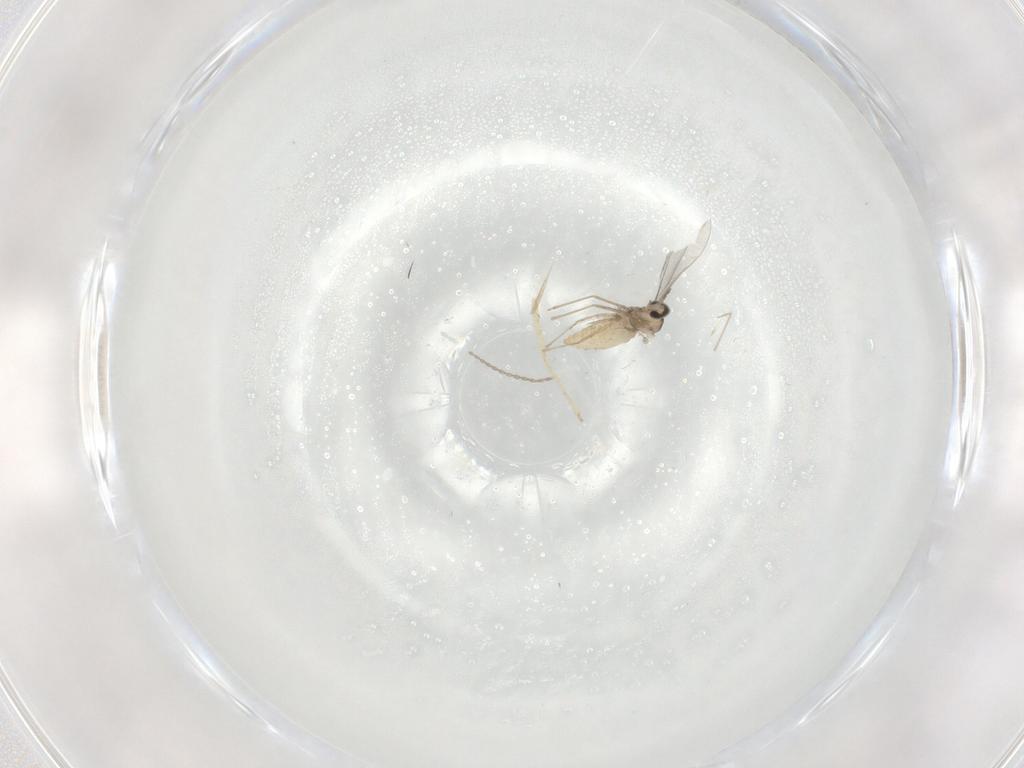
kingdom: Animalia
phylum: Arthropoda
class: Insecta
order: Diptera
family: Cecidomyiidae
